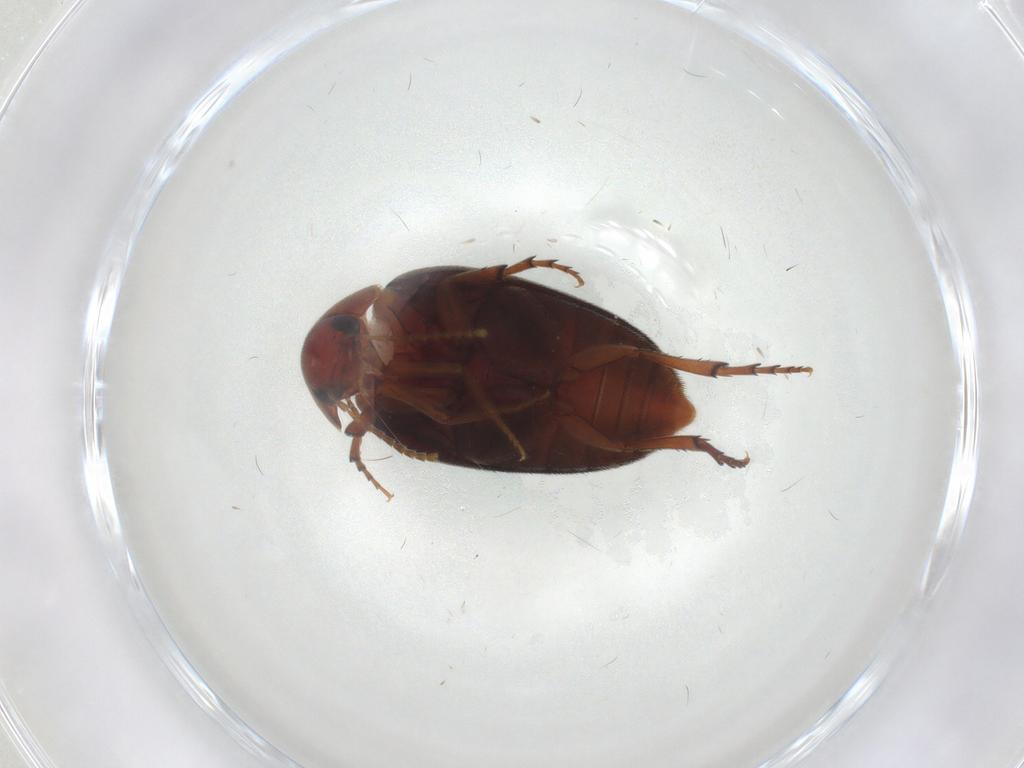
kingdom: Animalia
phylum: Arthropoda
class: Insecta
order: Coleoptera
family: Eucinetidae
